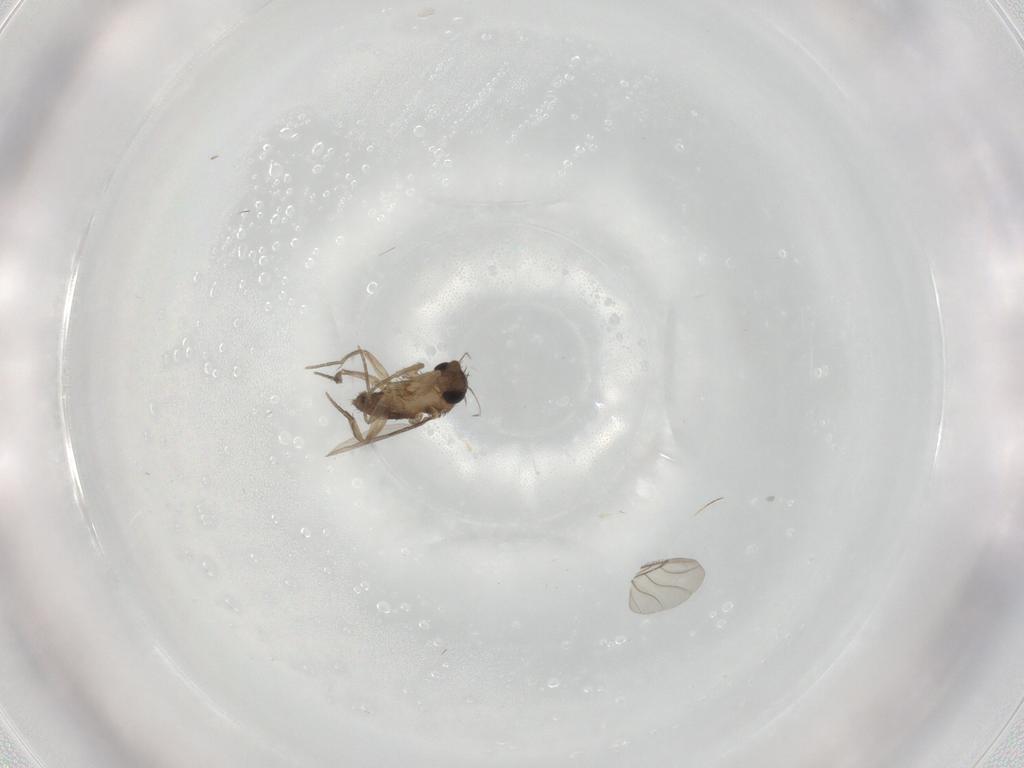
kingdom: Animalia
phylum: Arthropoda
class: Insecta
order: Diptera
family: Phoridae
